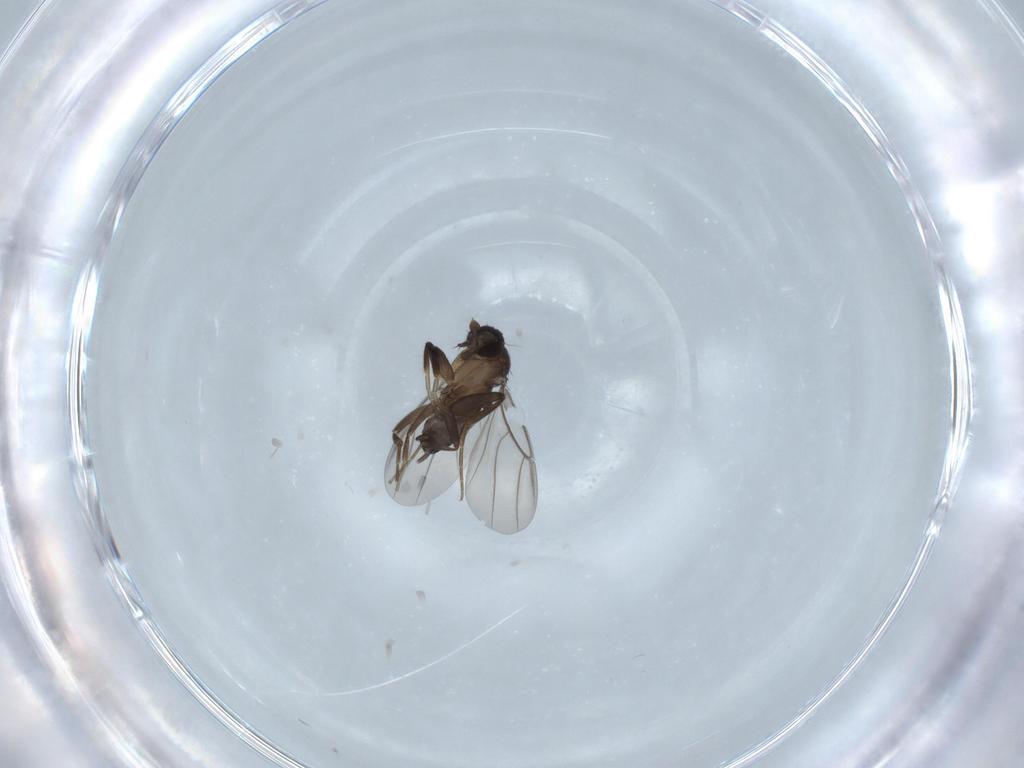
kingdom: Animalia
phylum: Arthropoda
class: Insecta
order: Diptera
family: Phoridae
